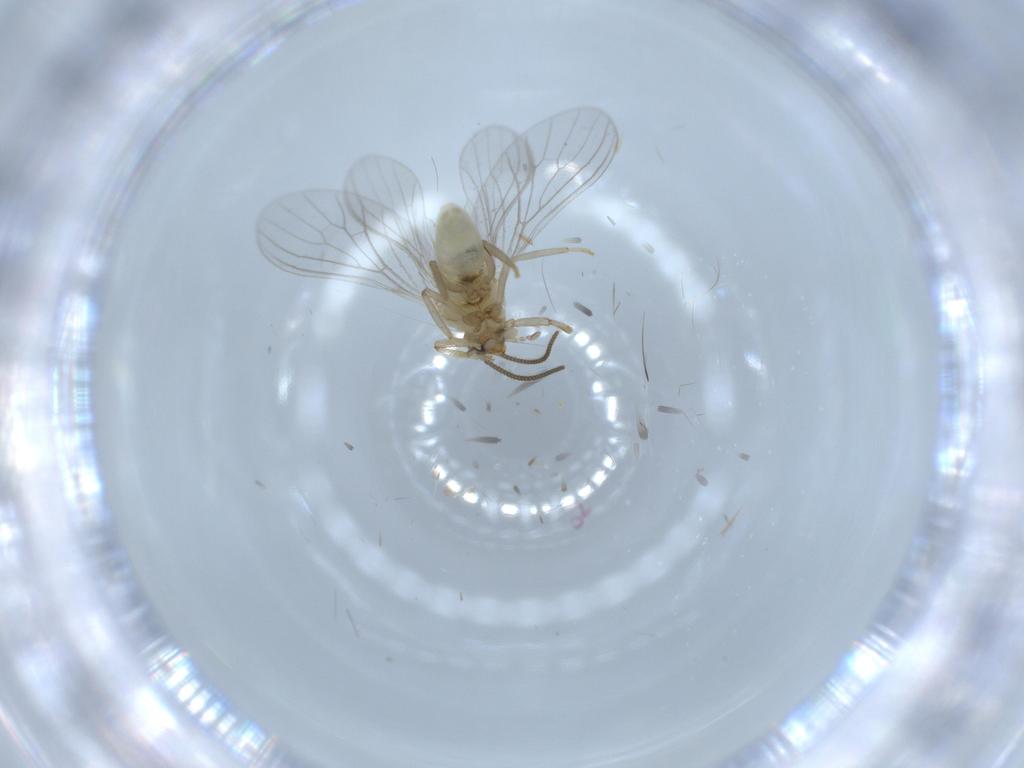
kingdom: Animalia
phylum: Arthropoda
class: Insecta
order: Neuroptera
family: Coniopterygidae
